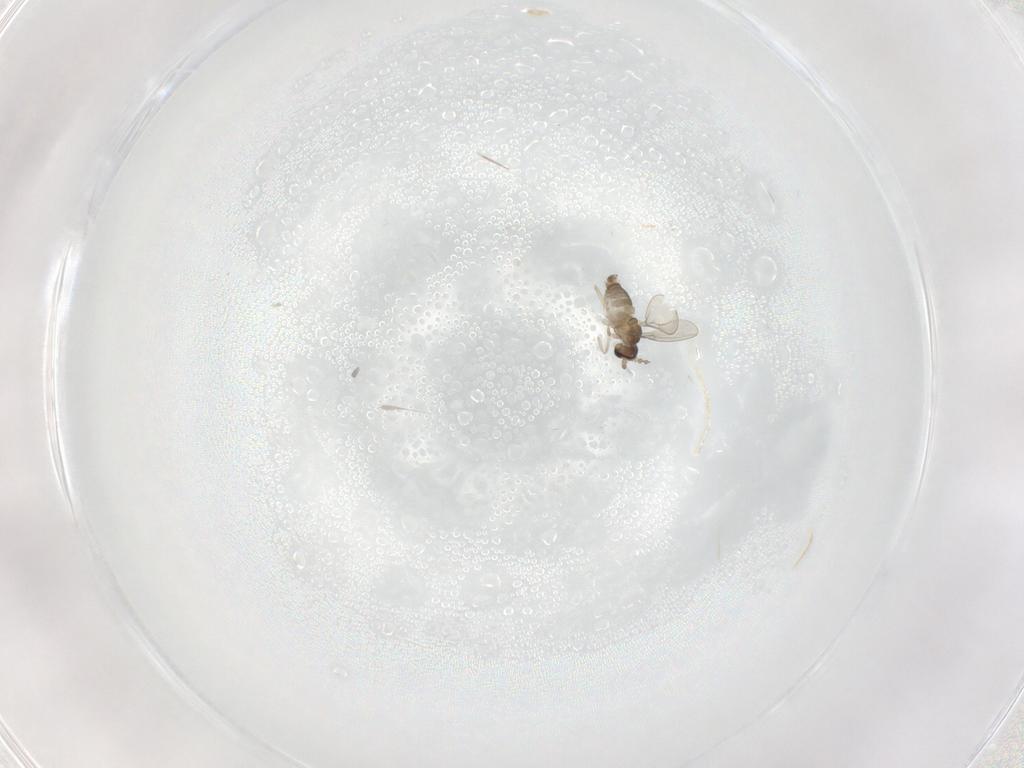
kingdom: Animalia
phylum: Arthropoda
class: Insecta
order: Diptera
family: Cecidomyiidae
